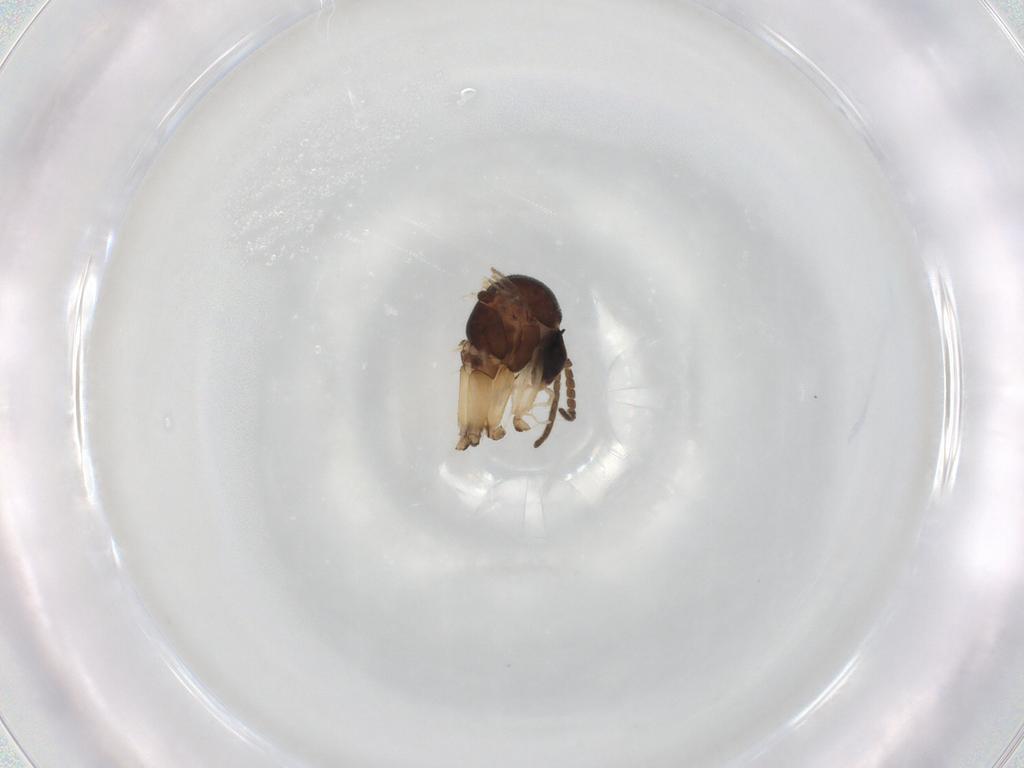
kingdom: Animalia
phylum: Arthropoda
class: Insecta
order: Diptera
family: Mycetophilidae
